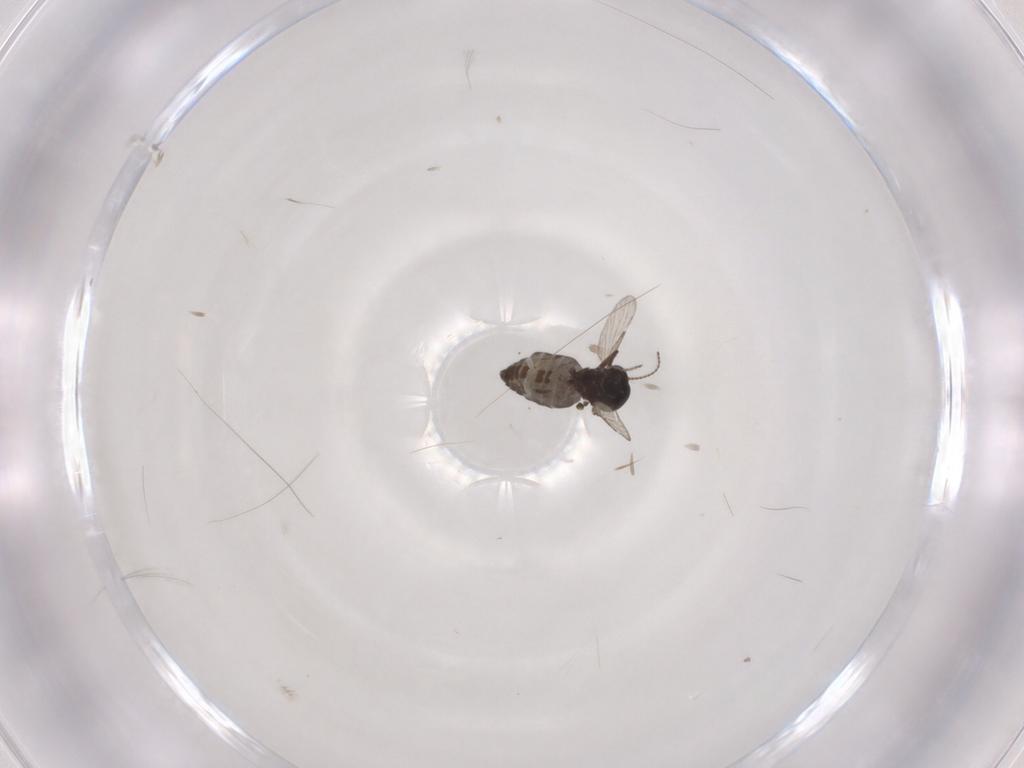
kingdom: Animalia
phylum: Arthropoda
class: Insecta
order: Diptera
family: Ceratopogonidae
